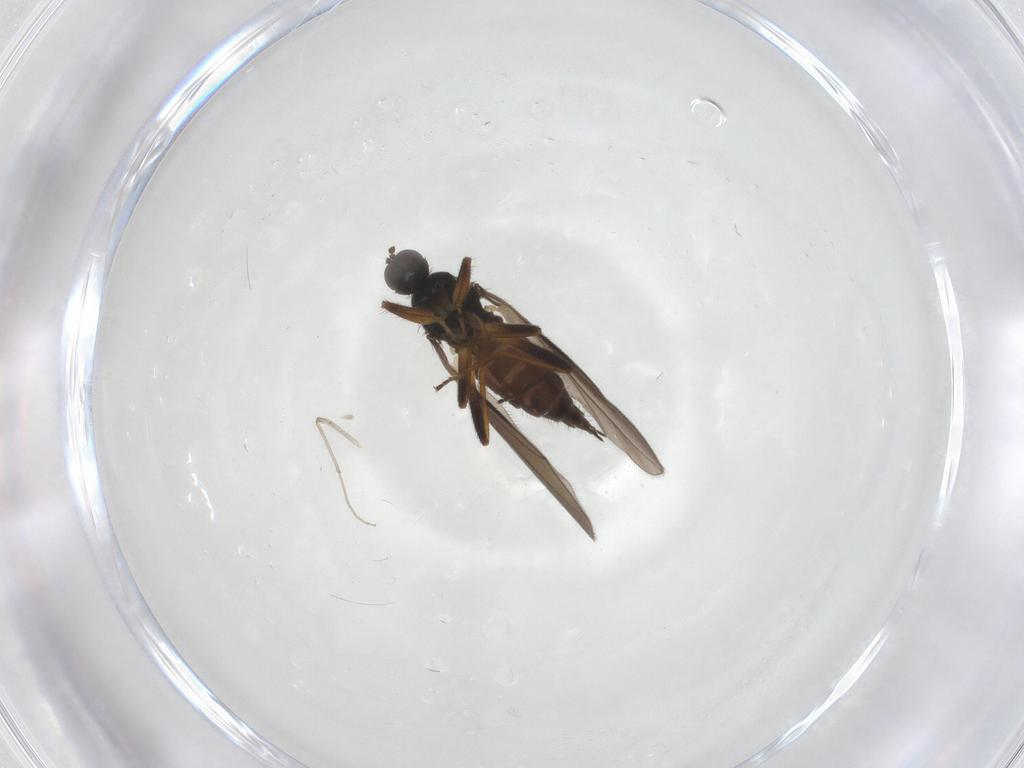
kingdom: Animalia
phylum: Arthropoda
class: Insecta
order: Diptera
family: Hybotidae
